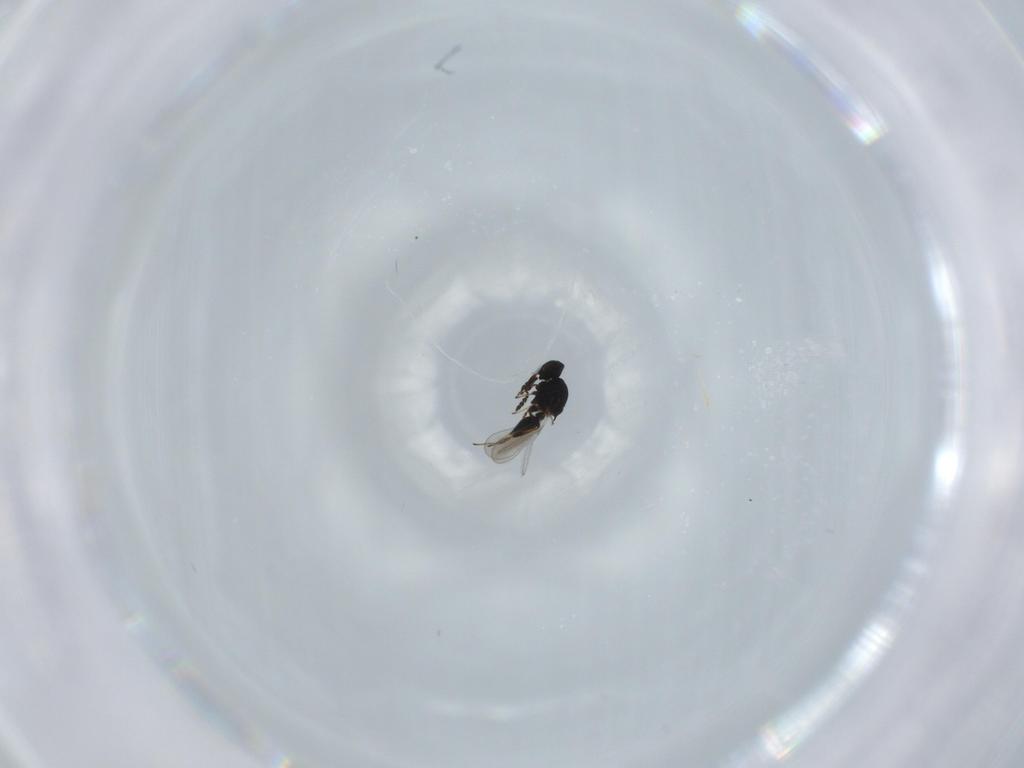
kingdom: Animalia
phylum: Arthropoda
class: Insecta
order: Hymenoptera
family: Platygastridae
